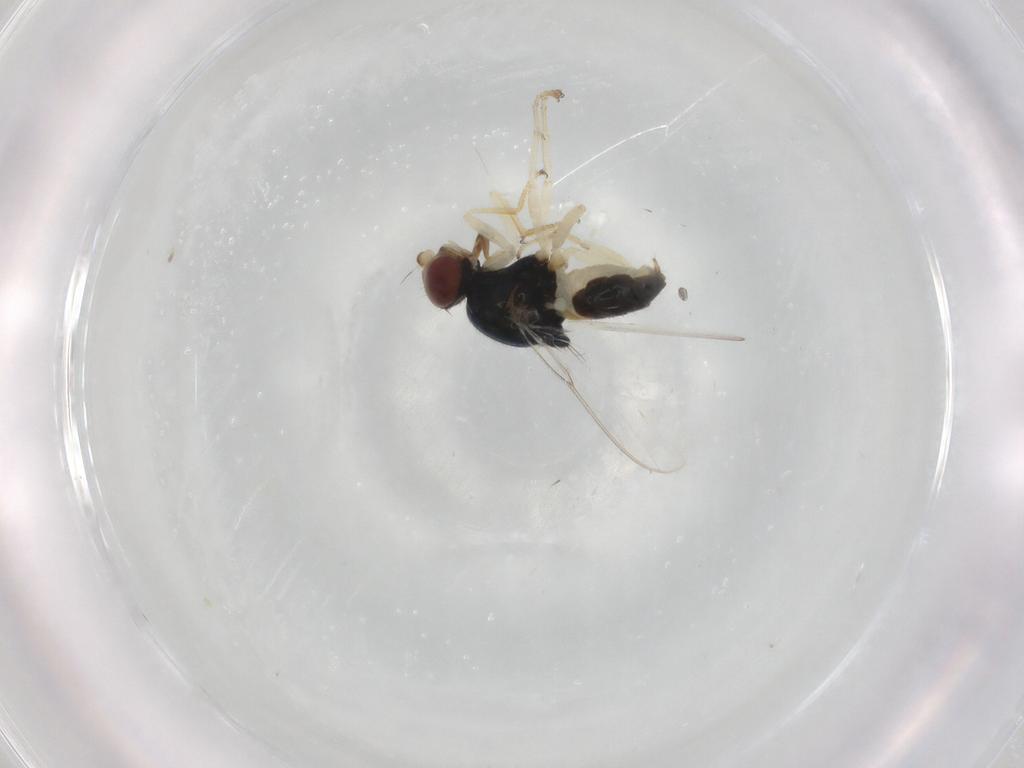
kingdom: Animalia
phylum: Arthropoda
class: Insecta
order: Diptera
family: Chloropidae
